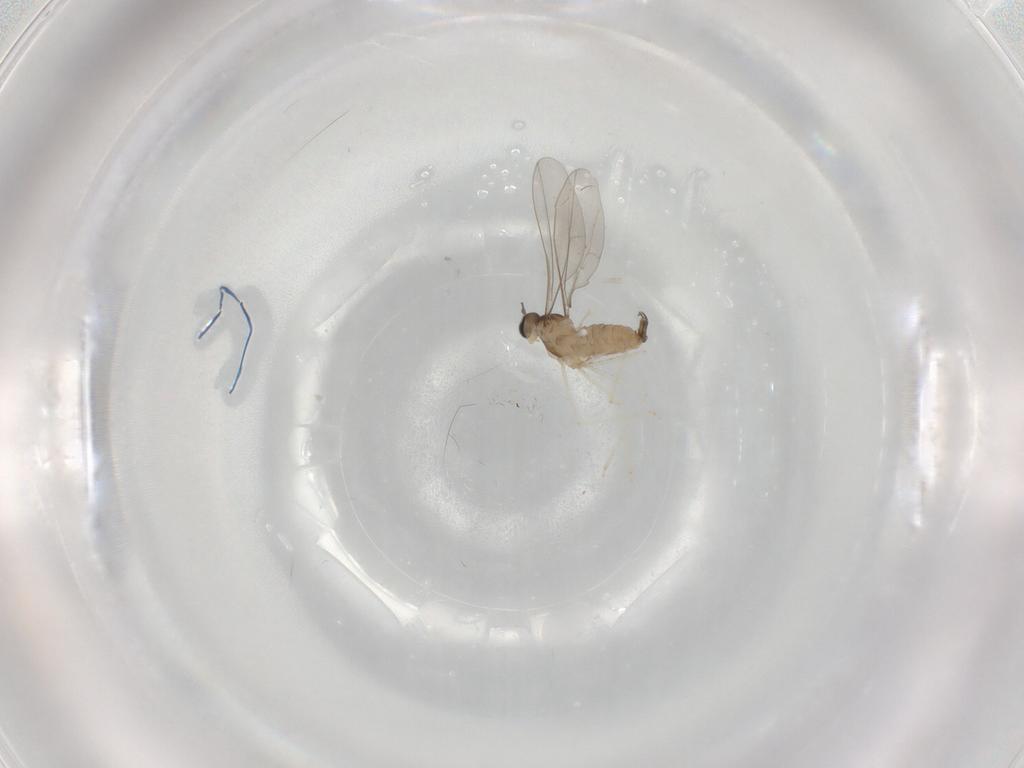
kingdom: Animalia
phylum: Arthropoda
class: Insecta
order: Diptera
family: Cecidomyiidae
